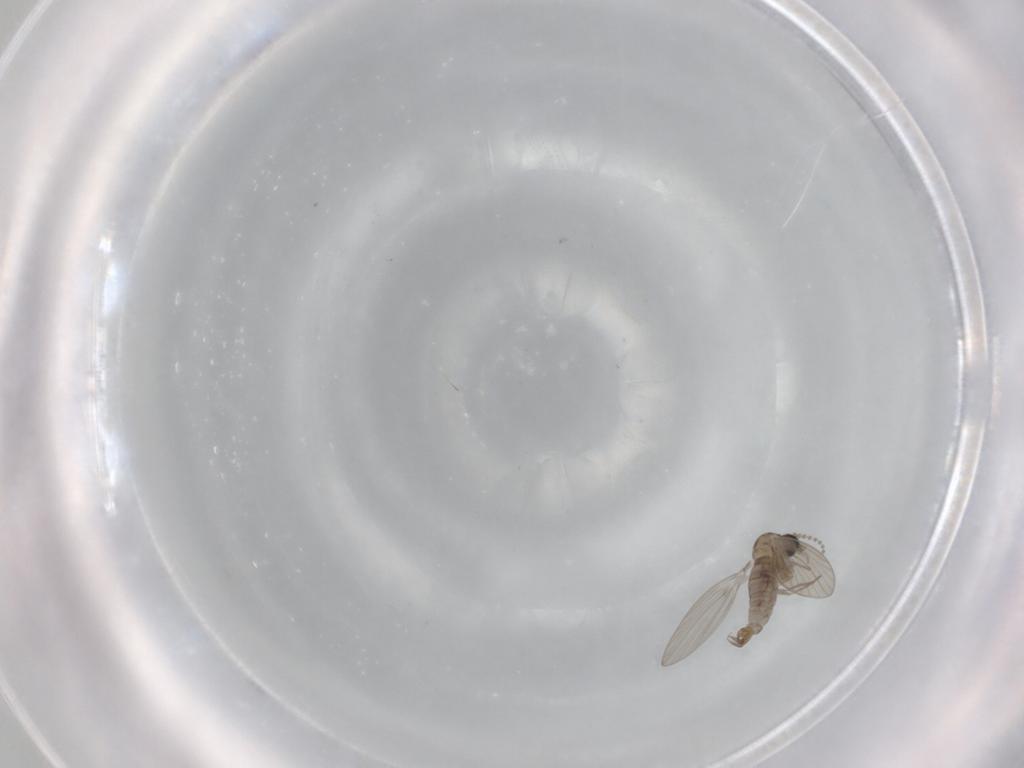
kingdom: Animalia
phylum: Arthropoda
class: Insecta
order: Diptera
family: Psychodidae
